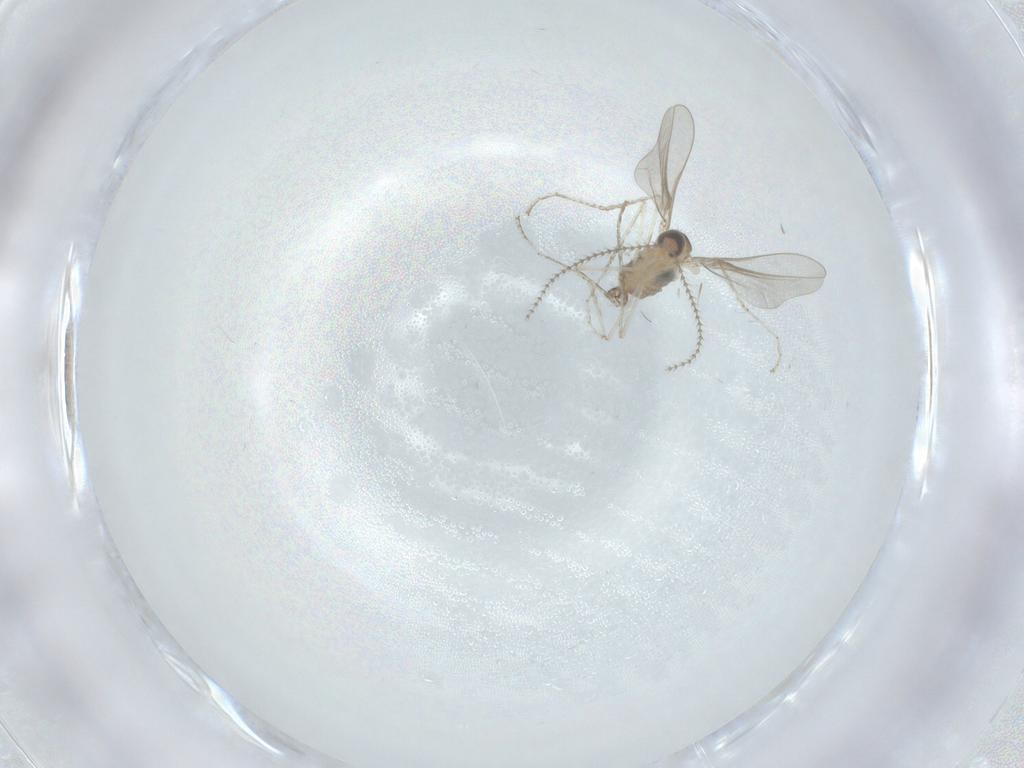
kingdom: Animalia
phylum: Arthropoda
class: Insecta
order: Diptera
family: Cecidomyiidae
